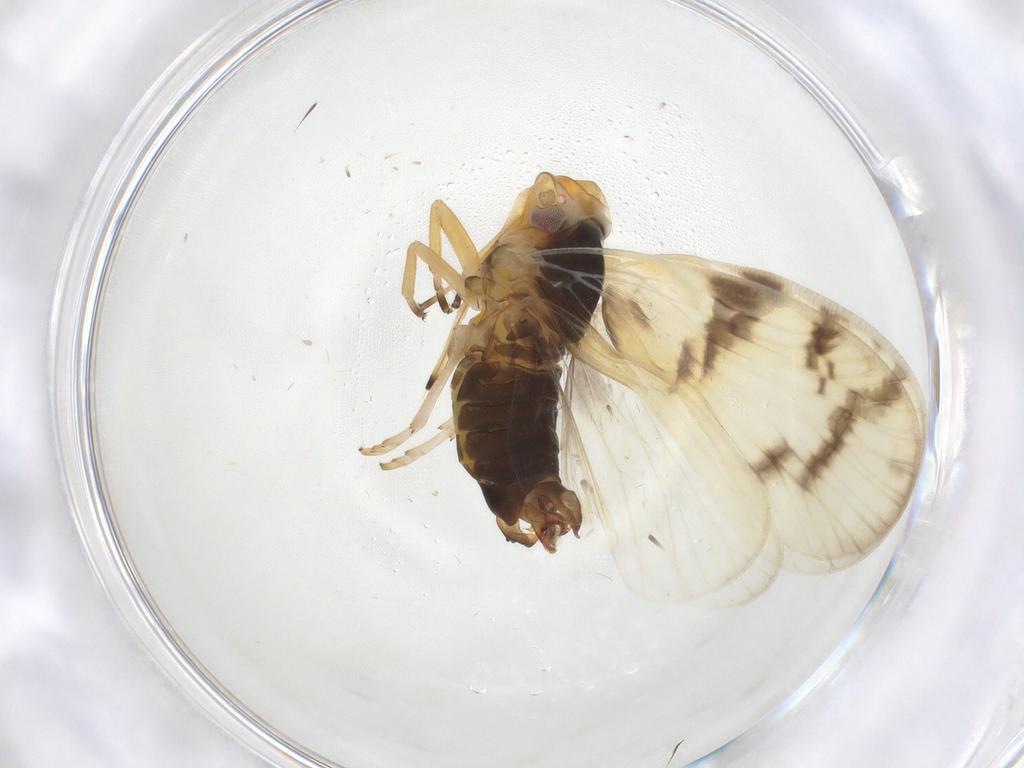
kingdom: Animalia
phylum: Arthropoda
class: Insecta
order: Hemiptera
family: Cixiidae
